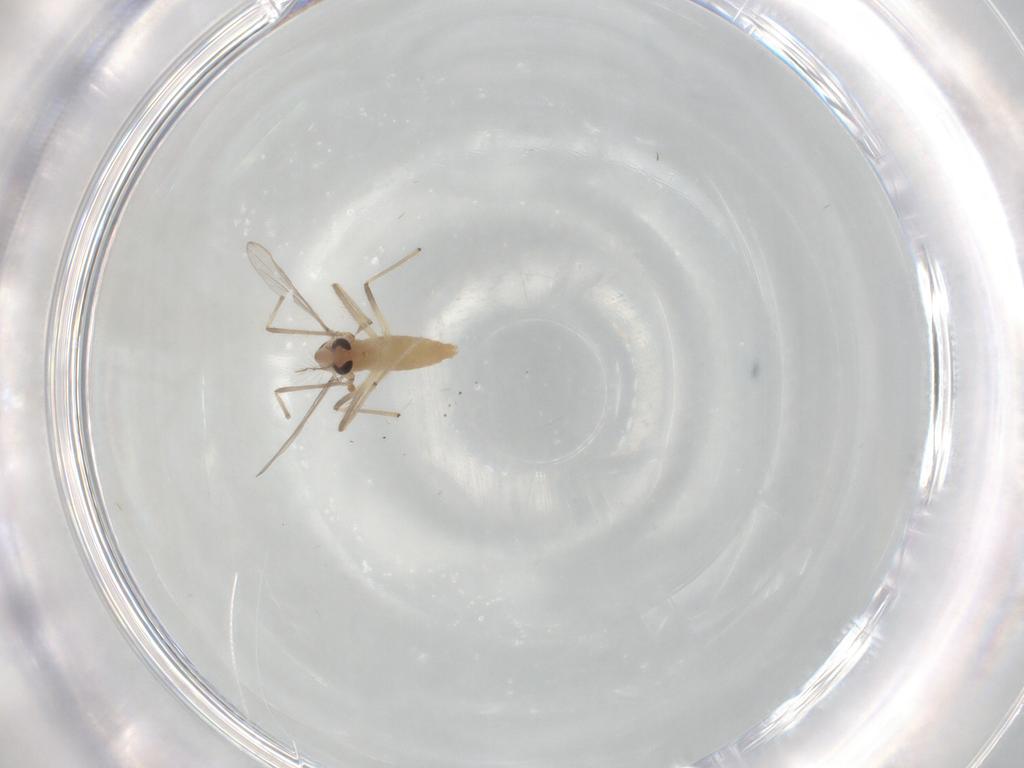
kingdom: Animalia
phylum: Arthropoda
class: Insecta
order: Diptera
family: Chironomidae
